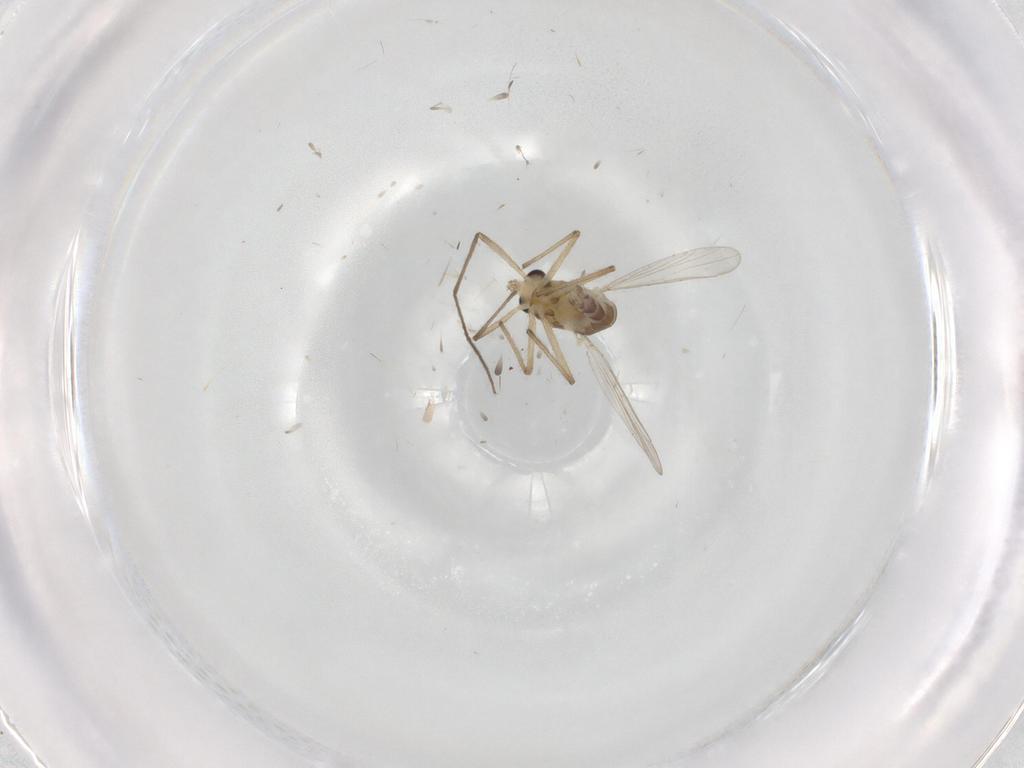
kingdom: Animalia
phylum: Arthropoda
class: Insecta
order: Diptera
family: Chironomidae
